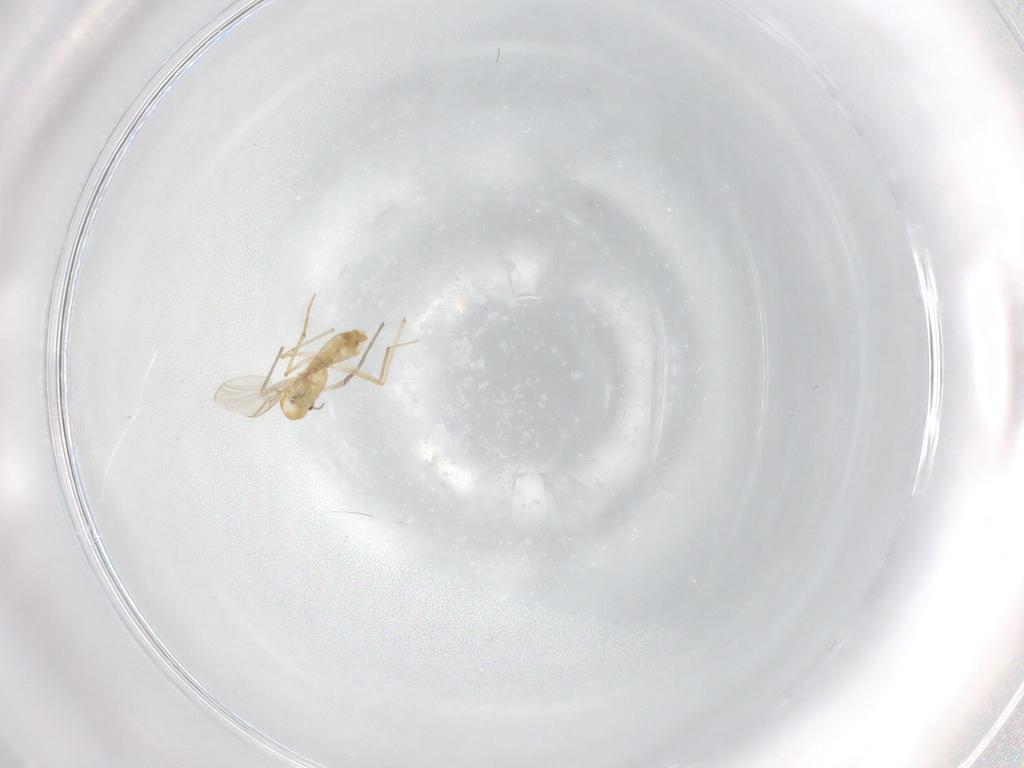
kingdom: Animalia
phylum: Arthropoda
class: Insecta
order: Diptera
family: Chironomidae
